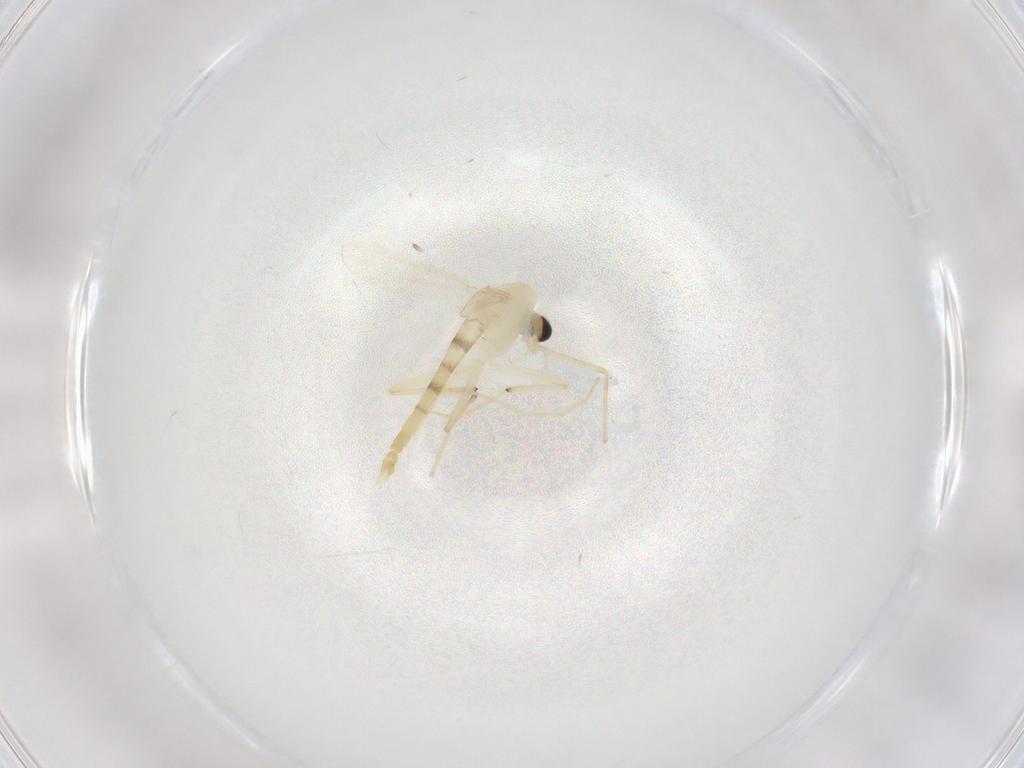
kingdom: Animalia
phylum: Arthropoda
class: Insecta
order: Diptera
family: Chironomidae
